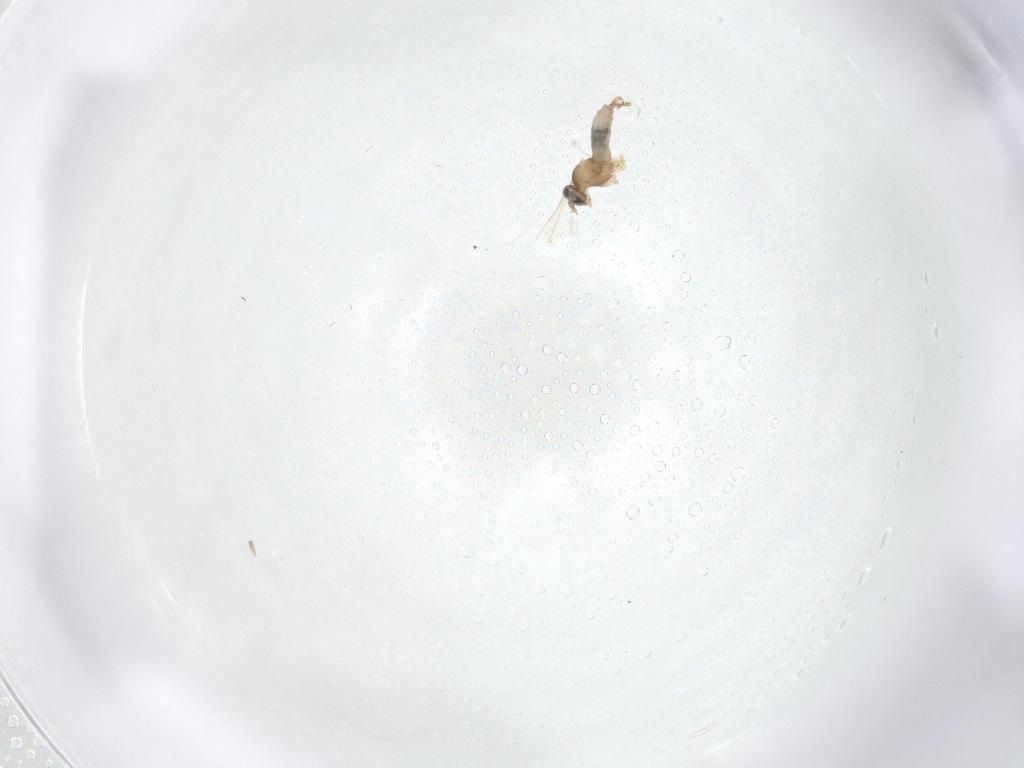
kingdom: Animalia
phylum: Arthropoda
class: Insecta
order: Diptera
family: Cecidomyiidae
